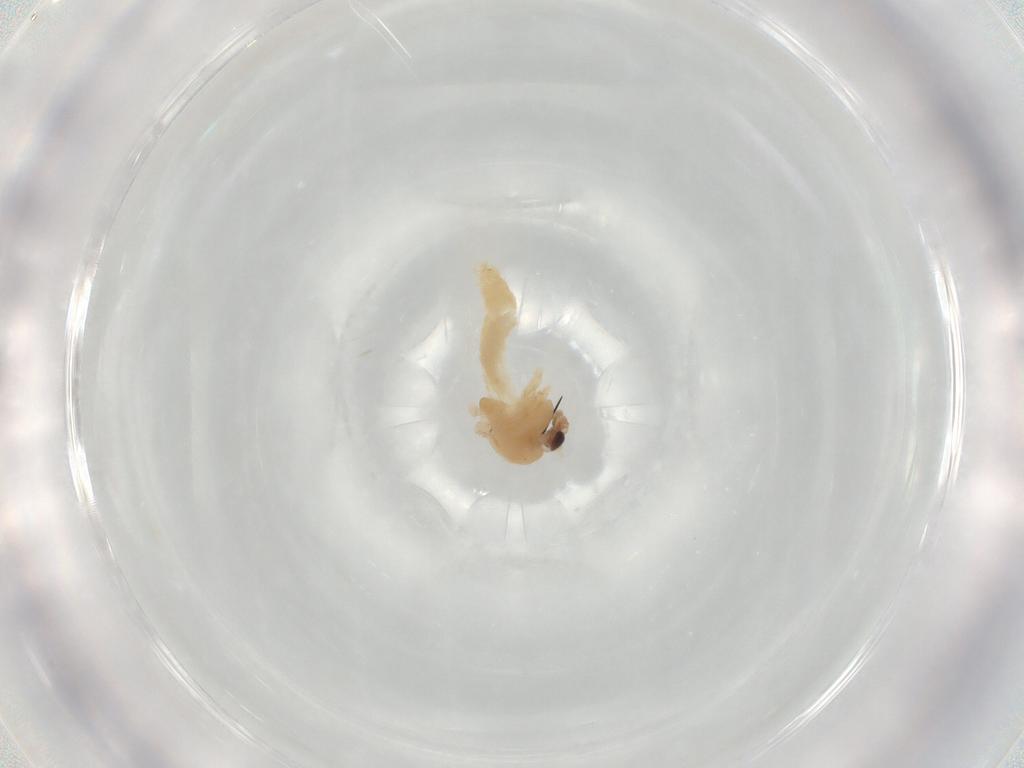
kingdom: Animalia
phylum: Arthropoda
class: Insecta
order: Diptera
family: Chironomidae
